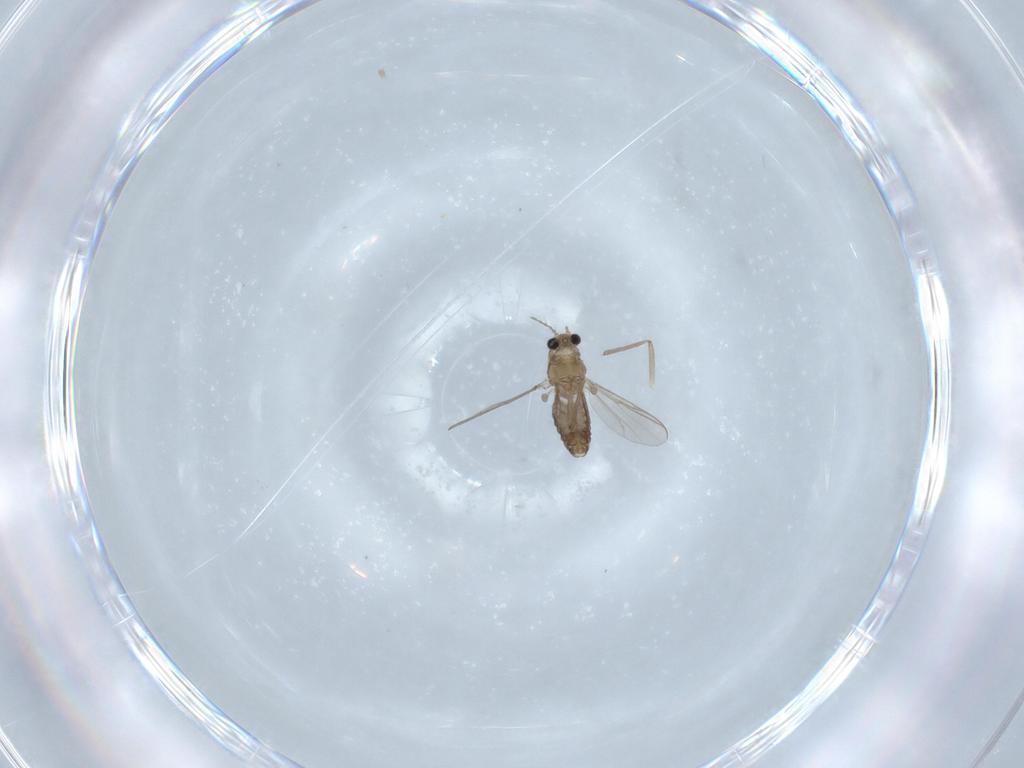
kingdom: Animalia
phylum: Arthropoda
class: Insecta
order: Diptera
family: Chironomidae
